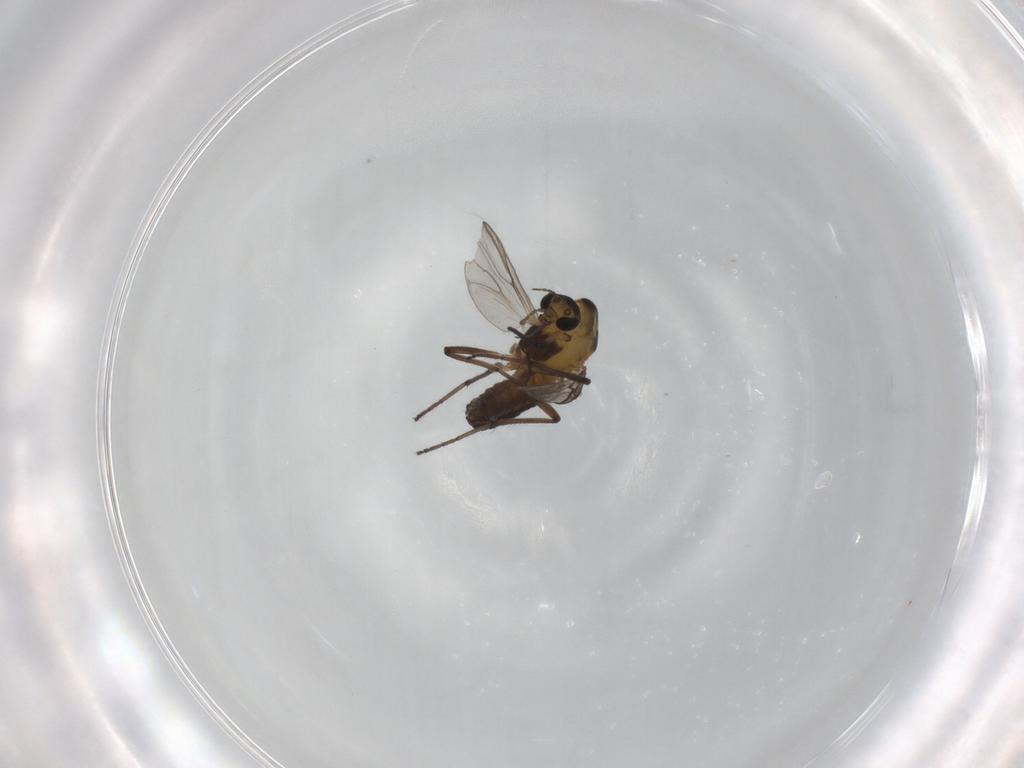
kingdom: Animalia
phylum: Arthropoda
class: Insecta
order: Diptera
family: Chironomidae
